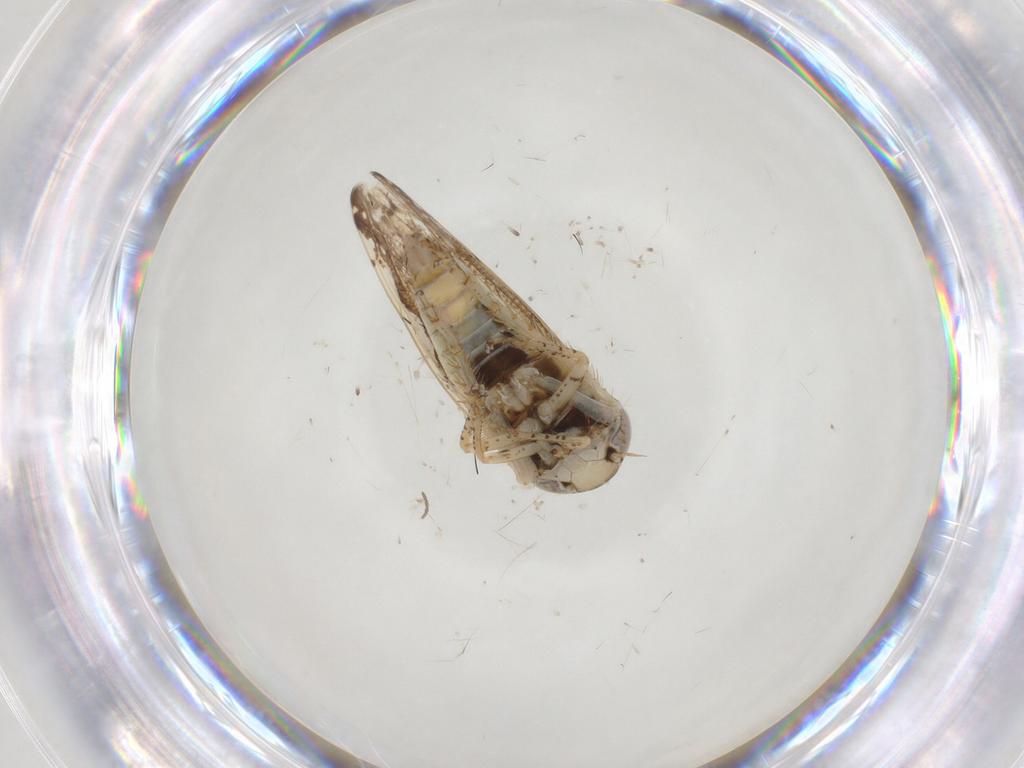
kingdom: Animalia
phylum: Arthropoda
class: Insecta
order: Hemiptera
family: Cicadellidae
